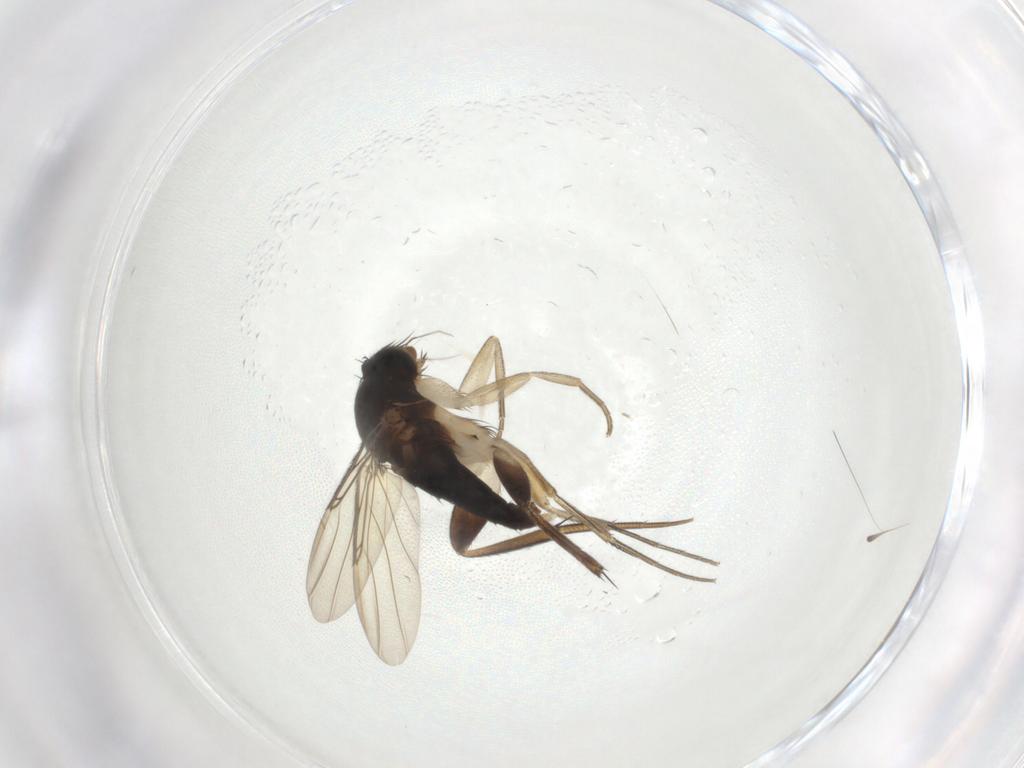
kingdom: Animalia
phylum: Arthropoda
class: Insecta
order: Diptera
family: Phoridae
